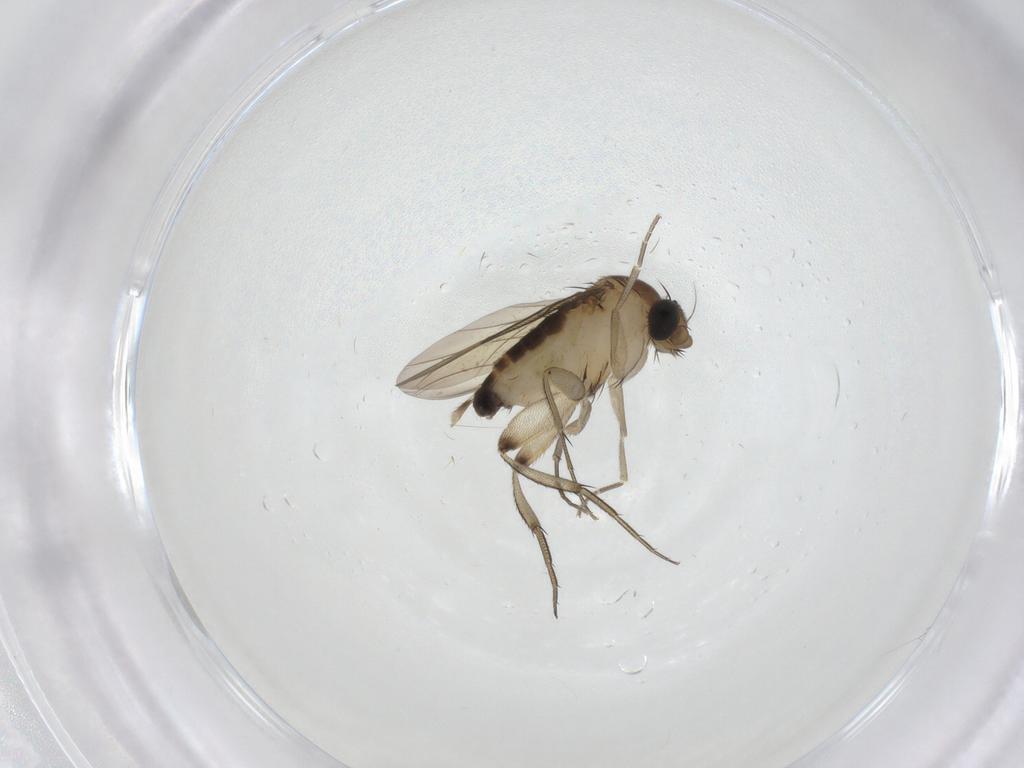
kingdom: Animalia
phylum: Arthropoda
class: Insecta
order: Diptera
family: Phoridae
